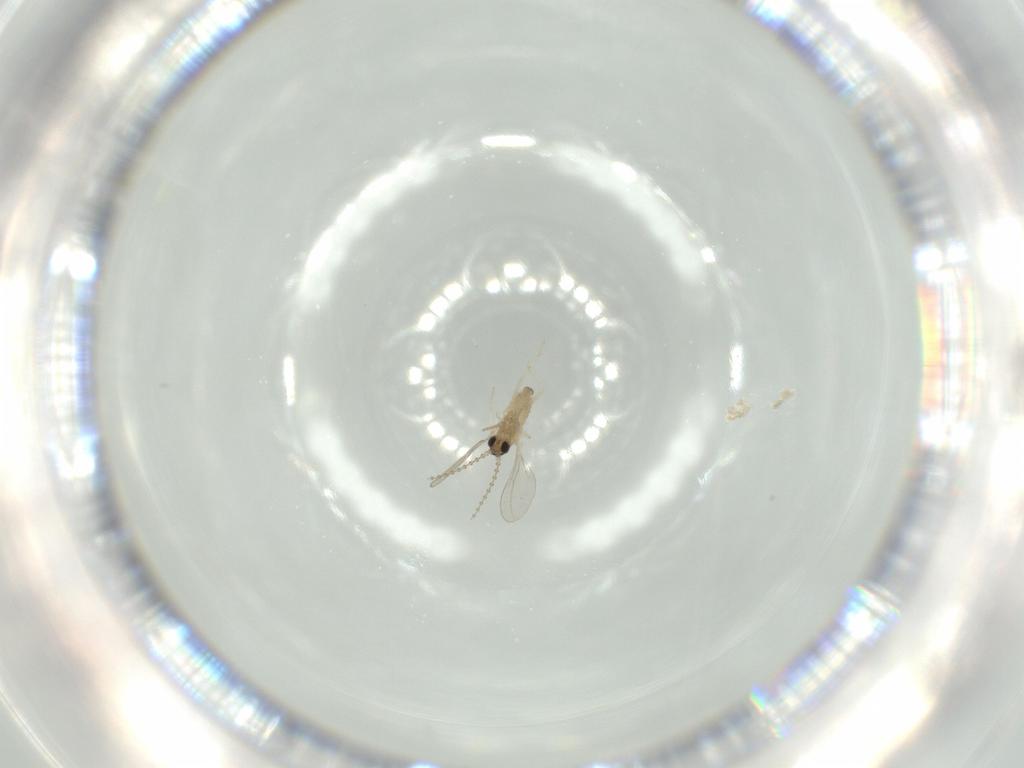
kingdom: Animalia
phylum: Arthropoda
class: Insecta
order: Diptera
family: Cecidomyiidae
